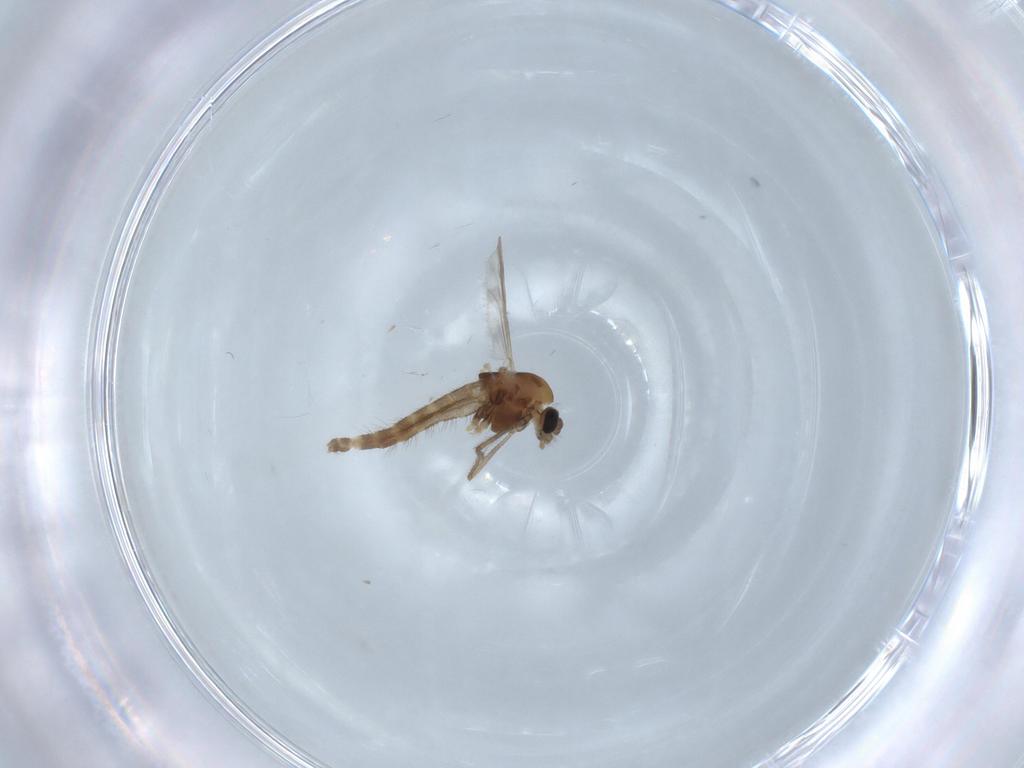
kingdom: Animalia
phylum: Arthropoda
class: Insecta
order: Diptera
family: Chironomidae
